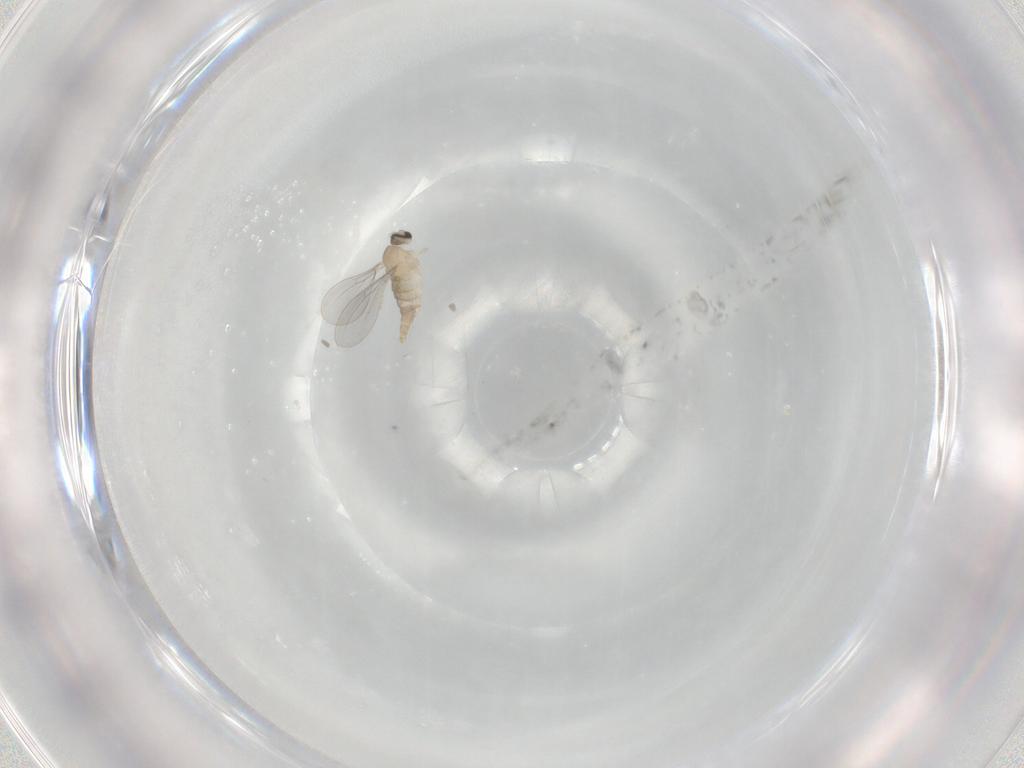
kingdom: Animalia
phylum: Arthropoda
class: Insecta
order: Diptera
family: Cecidomyiidae
